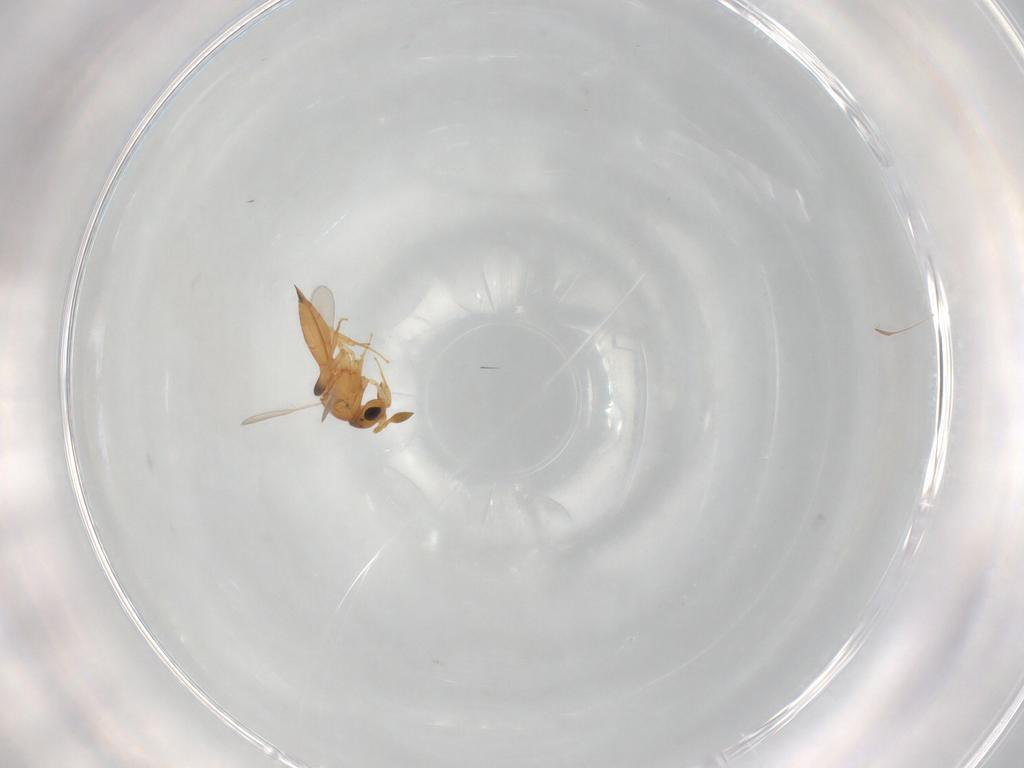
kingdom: Animalia
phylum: Arthropoda
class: Insecta
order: Hymenoptera
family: Scelionidae
